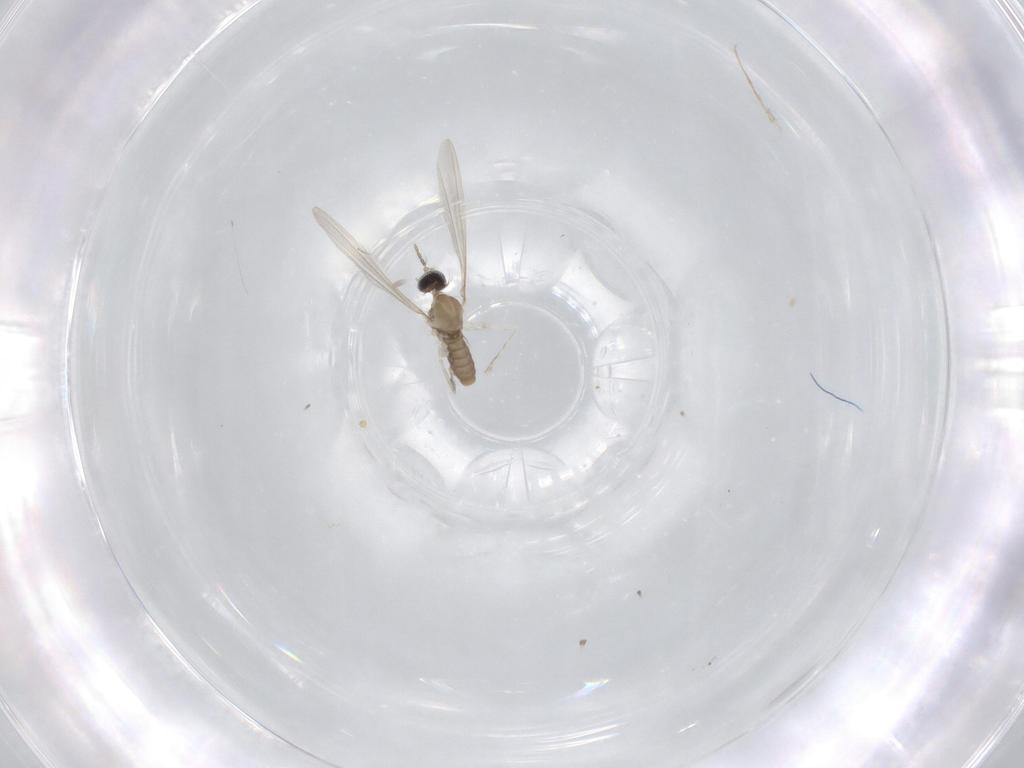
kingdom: Animalia
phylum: Arthropoda
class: Insecta
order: Diptera
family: Cecidomyiidae
